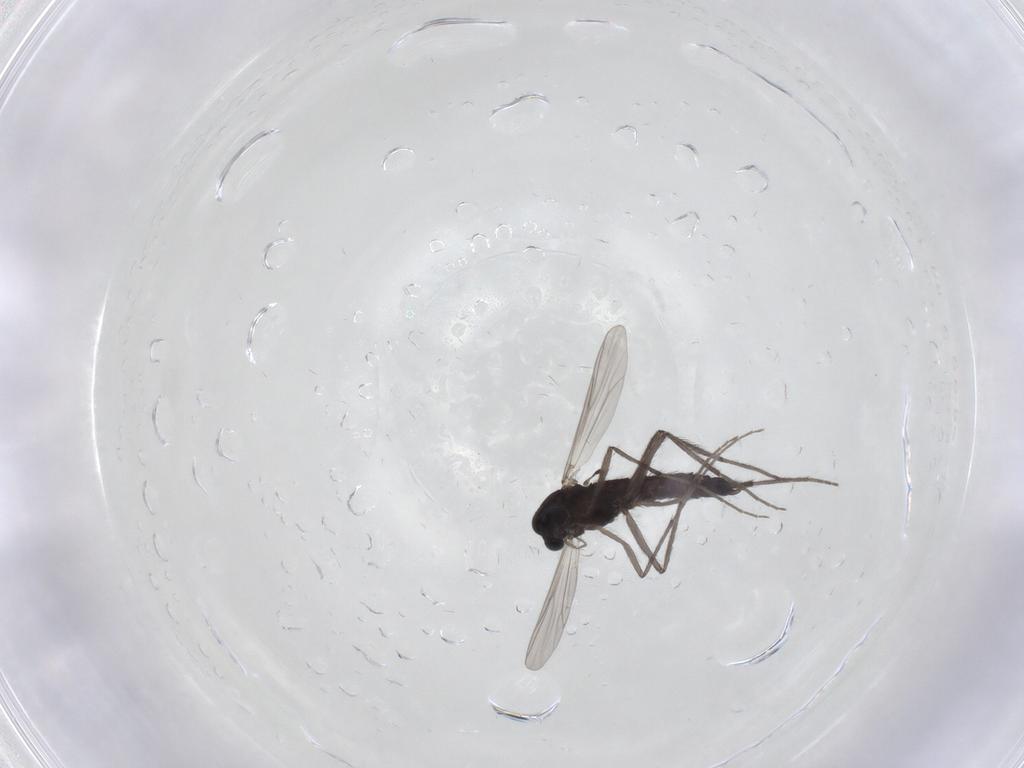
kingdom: Animalia
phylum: Arthropoda
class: Insecta
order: Diptera
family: Chironomidae
